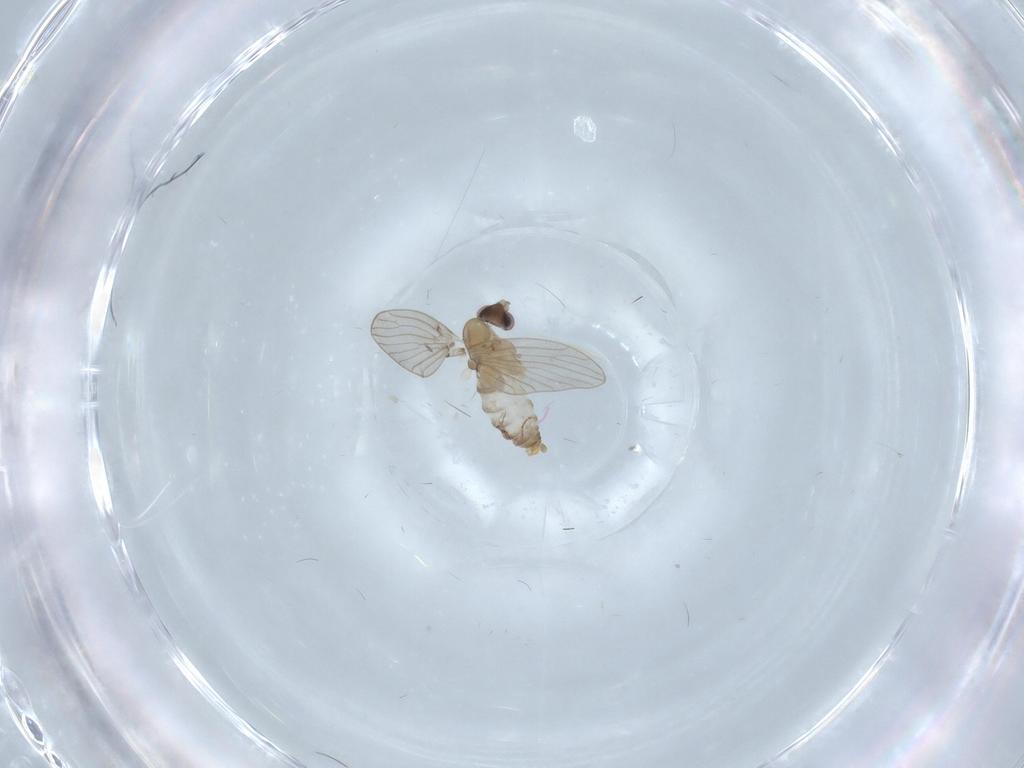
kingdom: Animalia
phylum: Arthropoda
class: Insecta
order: Diptera
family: Psychodidae
